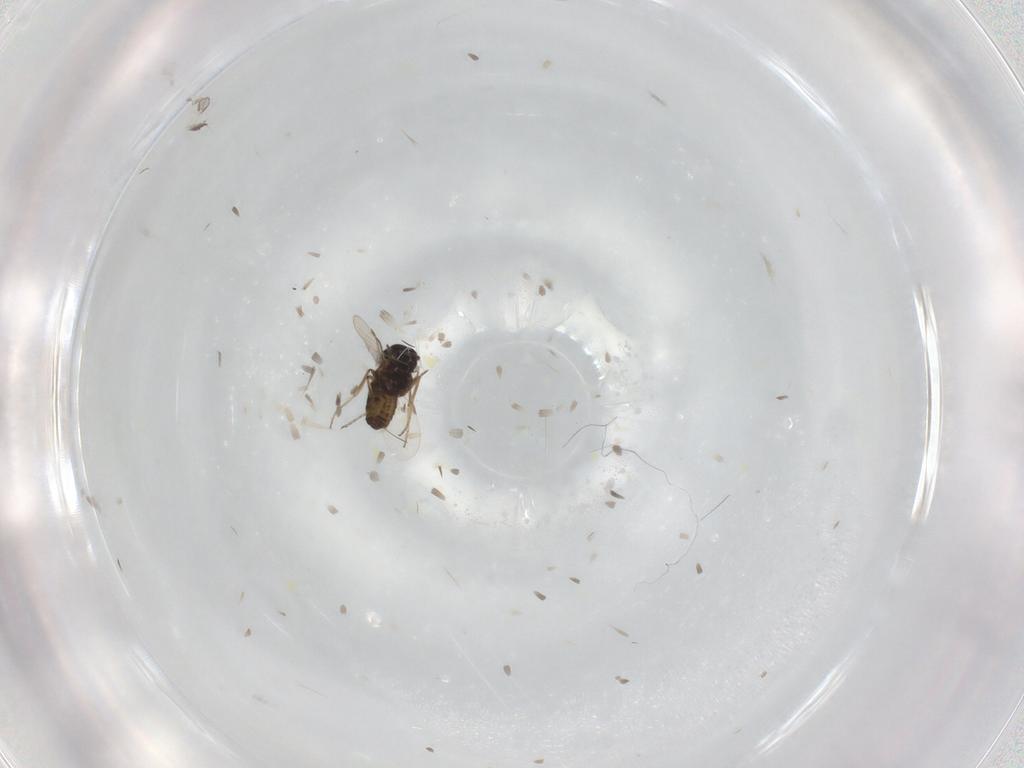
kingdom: Animalia
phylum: Arthropoda
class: Insecta
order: Diptera
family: Ceratopogonidae
